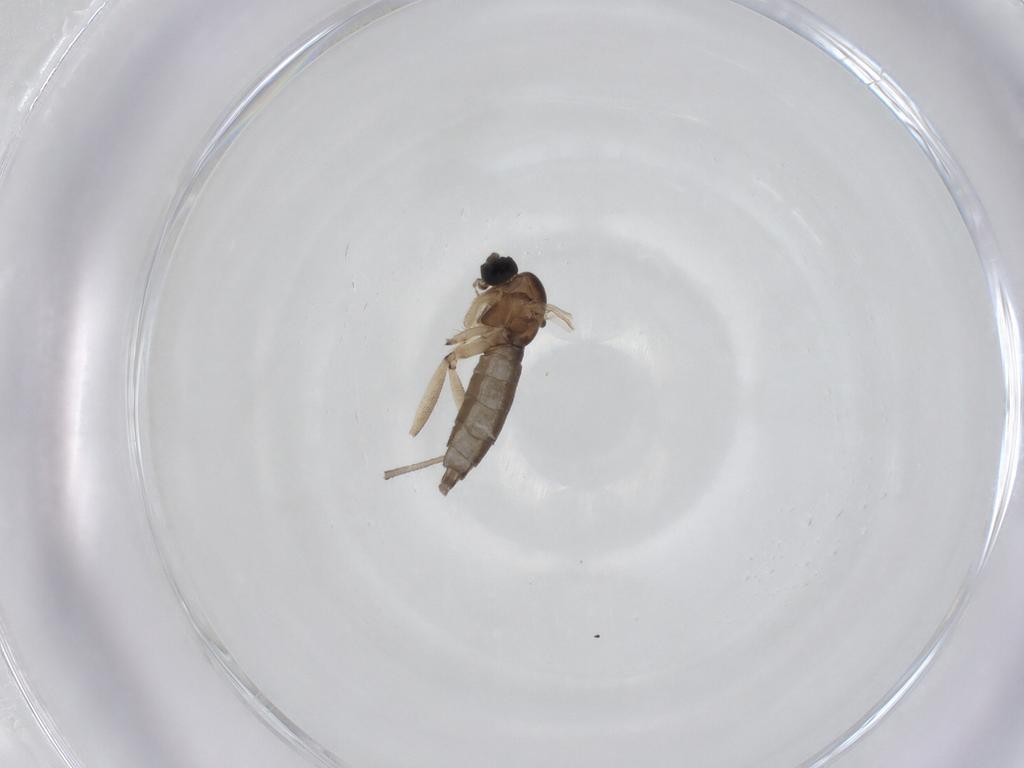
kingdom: Animalia
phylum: Arthropoda
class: Insecta
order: Diptera
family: Sciaridae
